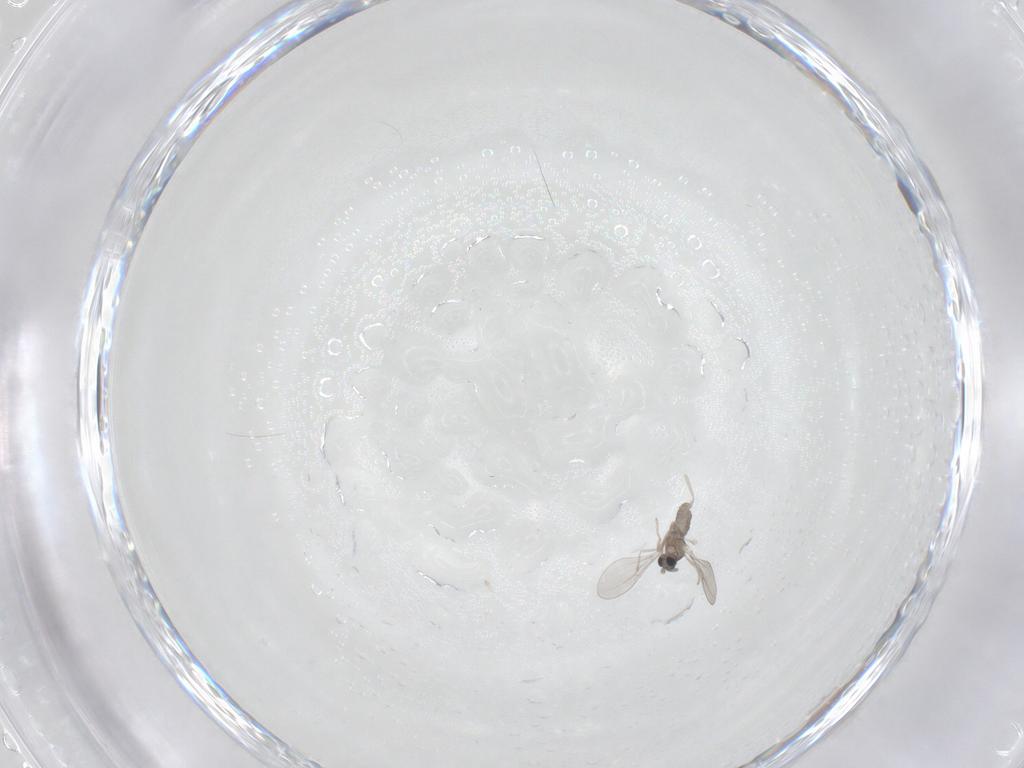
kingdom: Animalia
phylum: Arthropoda
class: Insecta
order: Diptera
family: Cecidomyiidae
